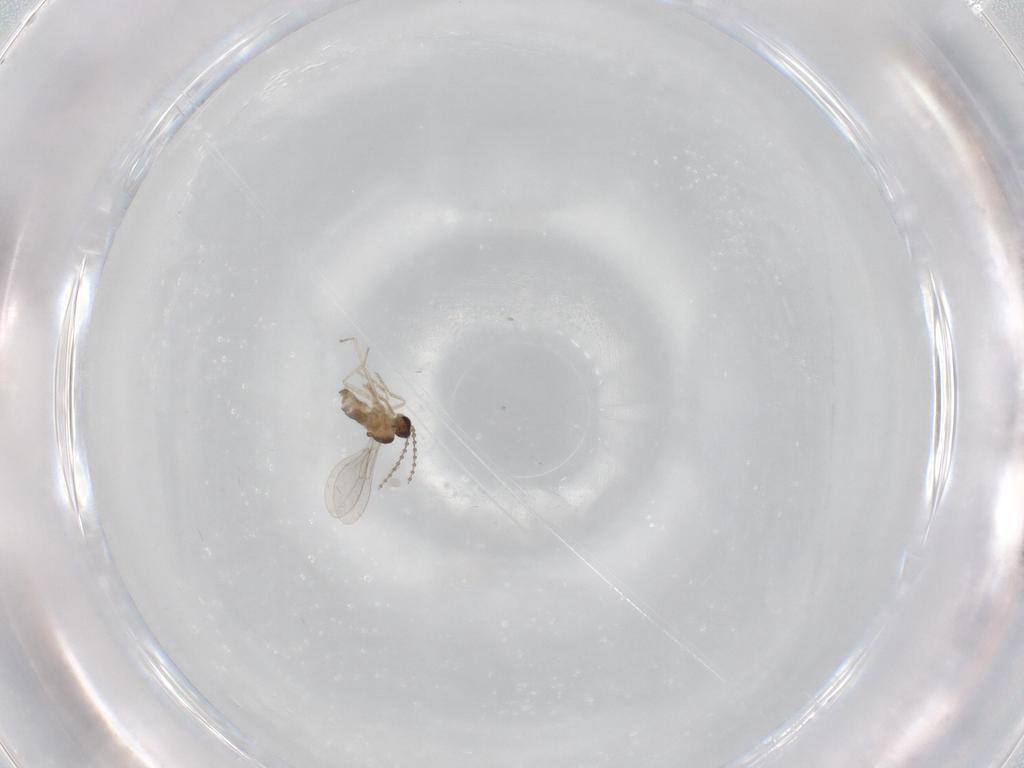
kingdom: Animalia
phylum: Arthropoda
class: Insecta
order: Diptera
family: Cecidomyiidae
